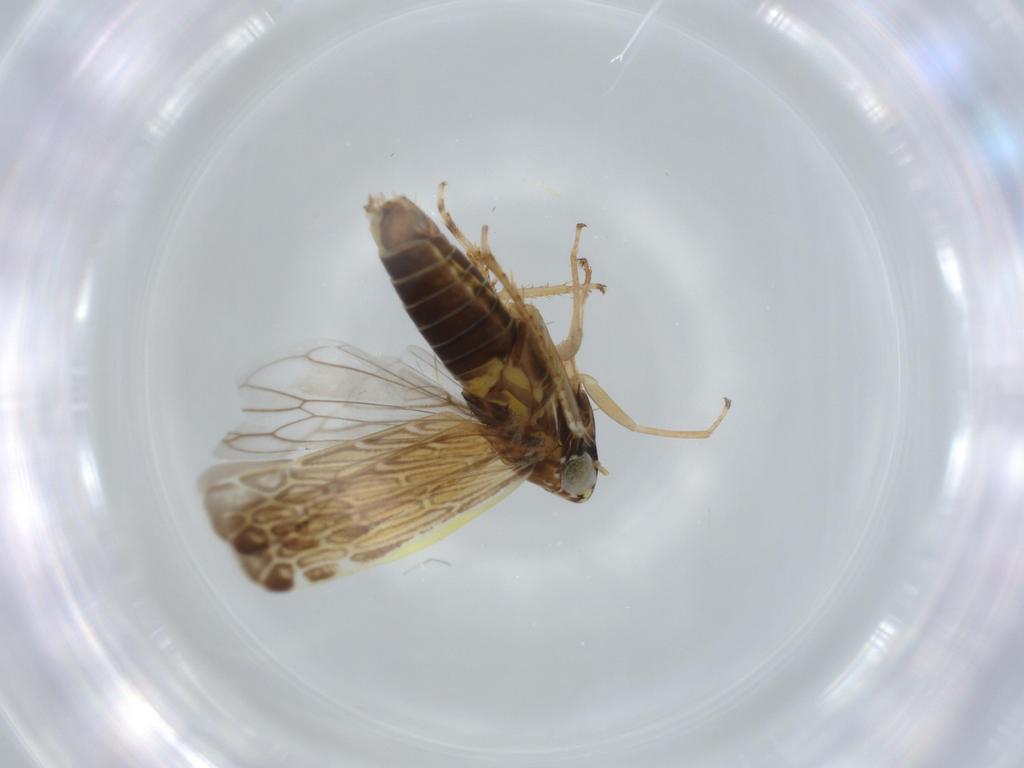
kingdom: Animalia
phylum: Arthropoda
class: Insecta
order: Hemiptera
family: Cicadellidae
